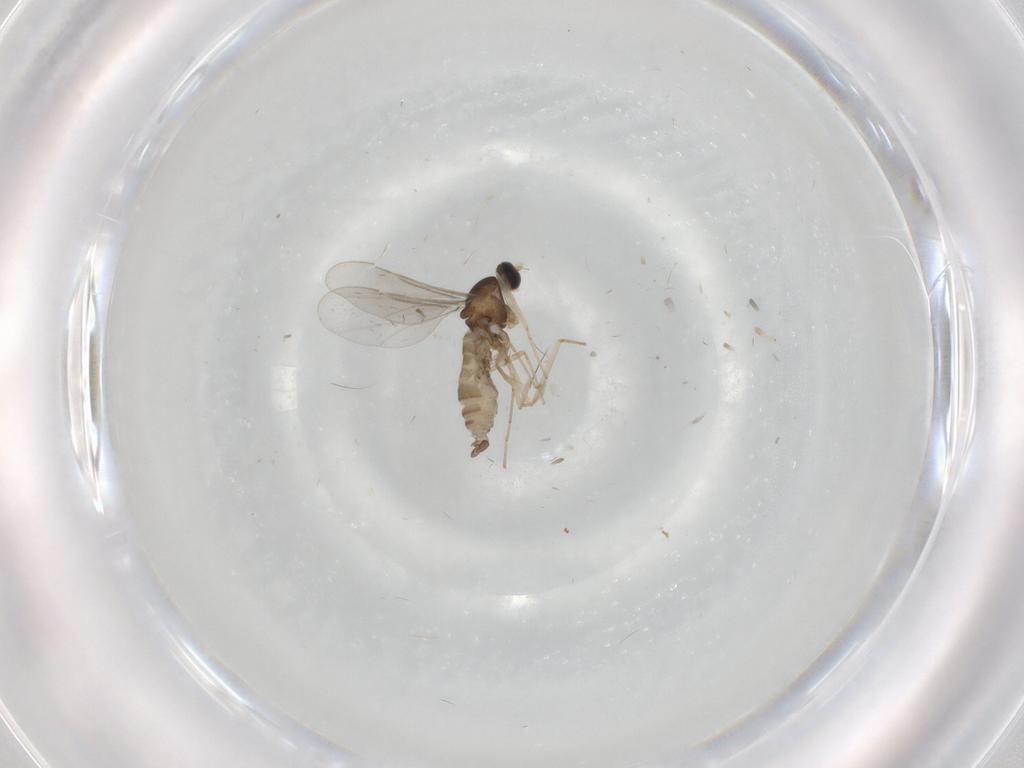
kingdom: Animalia
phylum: Arthropoda
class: Insecta
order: Diptera
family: Cecidomyiidae
